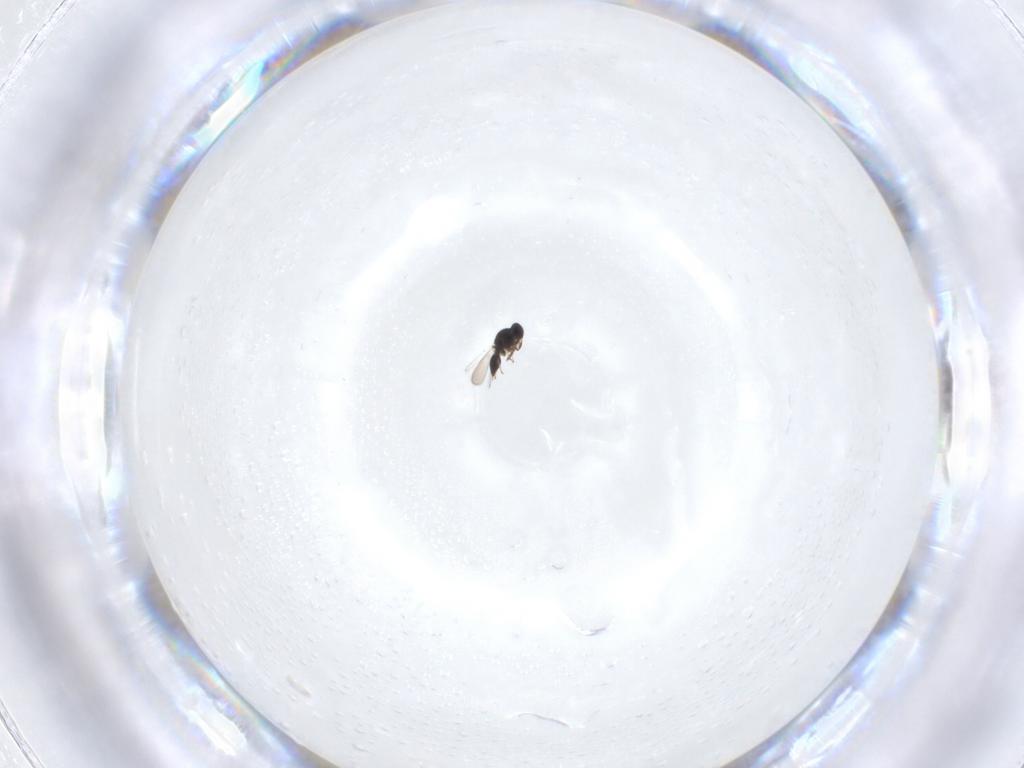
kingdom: Animalia
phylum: Arthropoda
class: Insecta
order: Hymenoptera
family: Platygastridae
